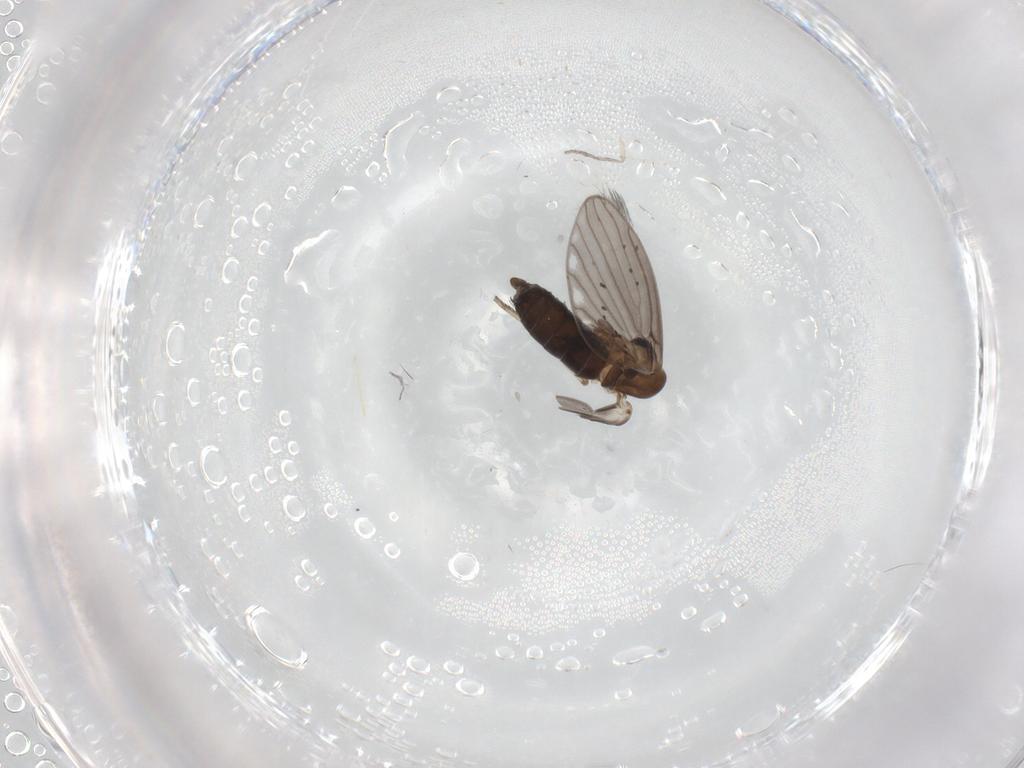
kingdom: Animalia
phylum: Arthropoda
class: Insecta
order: Diptera
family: Psychodidae
